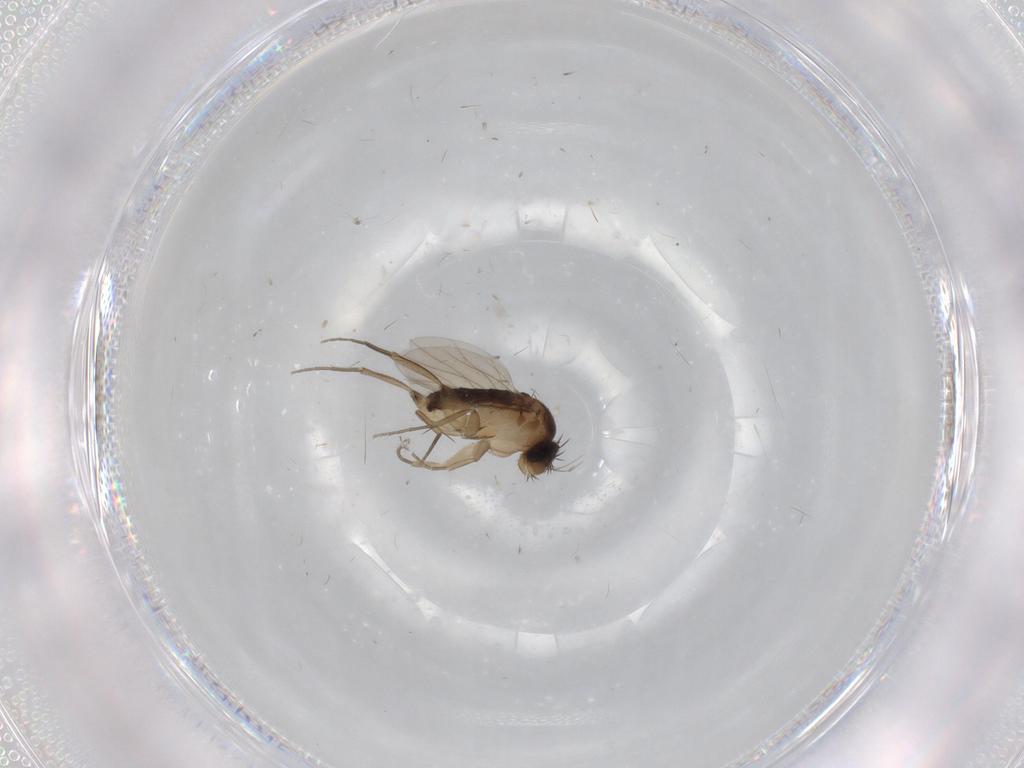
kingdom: Animalia
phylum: Arthropoda
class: Insecta
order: Diptera
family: Phoridae
